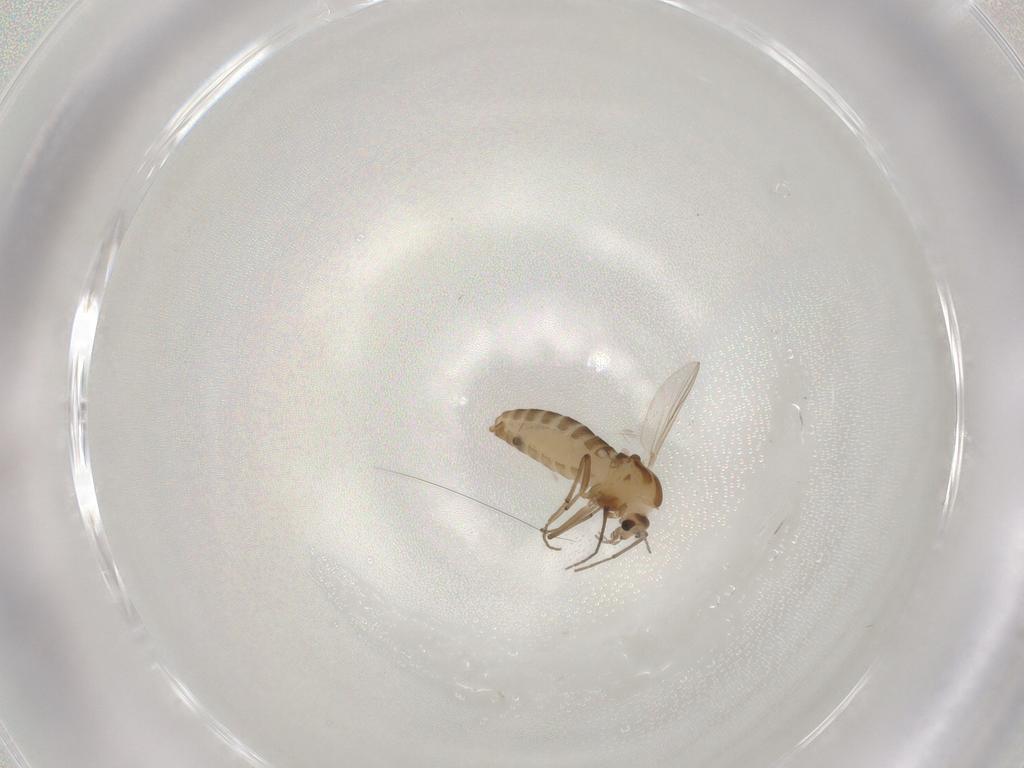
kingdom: Animalia
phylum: Arthropoda
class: Insecta
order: Diptera
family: Chironomidae
